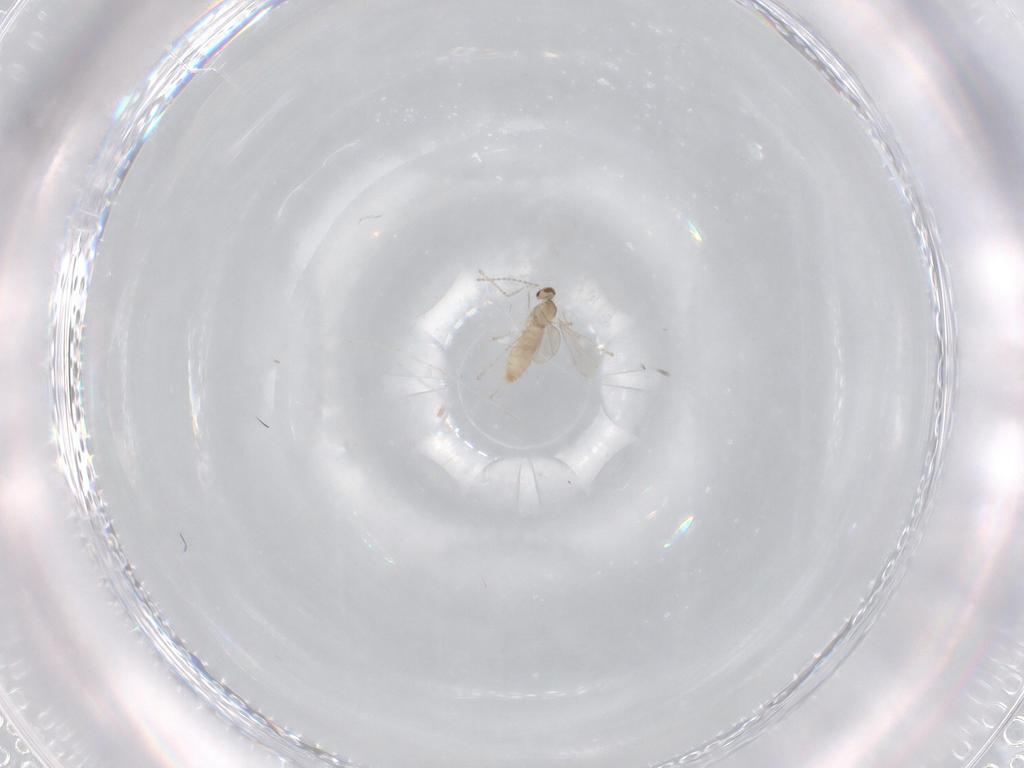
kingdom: Animalia
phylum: Arthropoda
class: Insecta
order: Diptera
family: Cecidomyiidae
